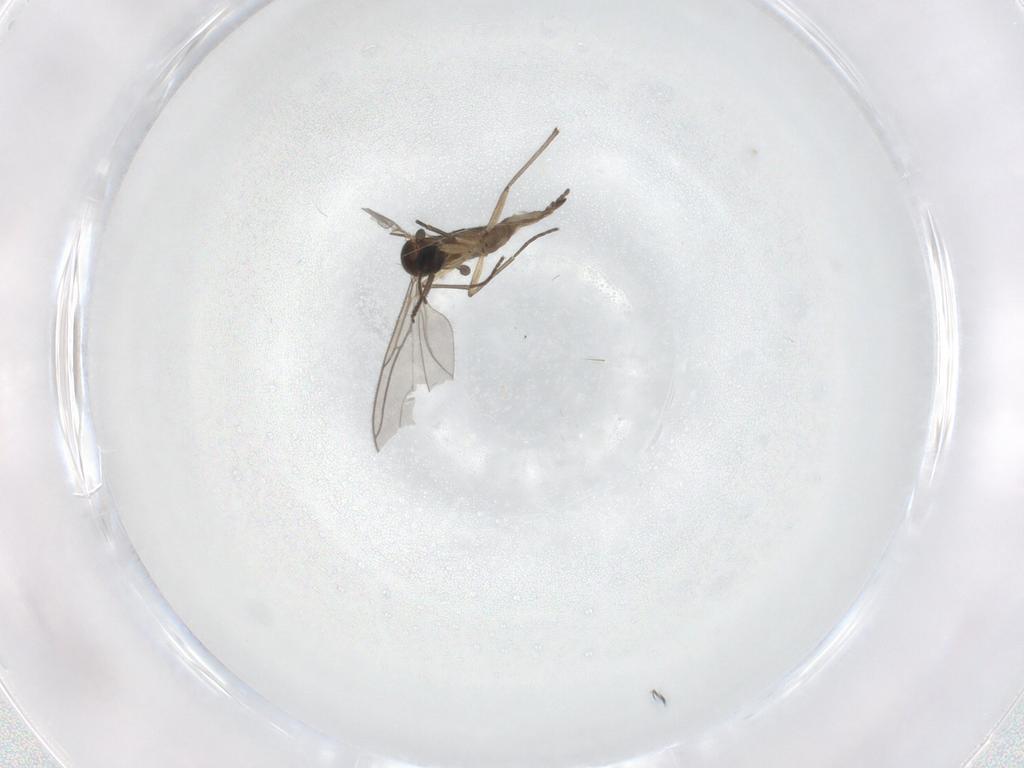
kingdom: Animalia
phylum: Arthropoda
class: Insecta
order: Diptera
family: Sciaridae
